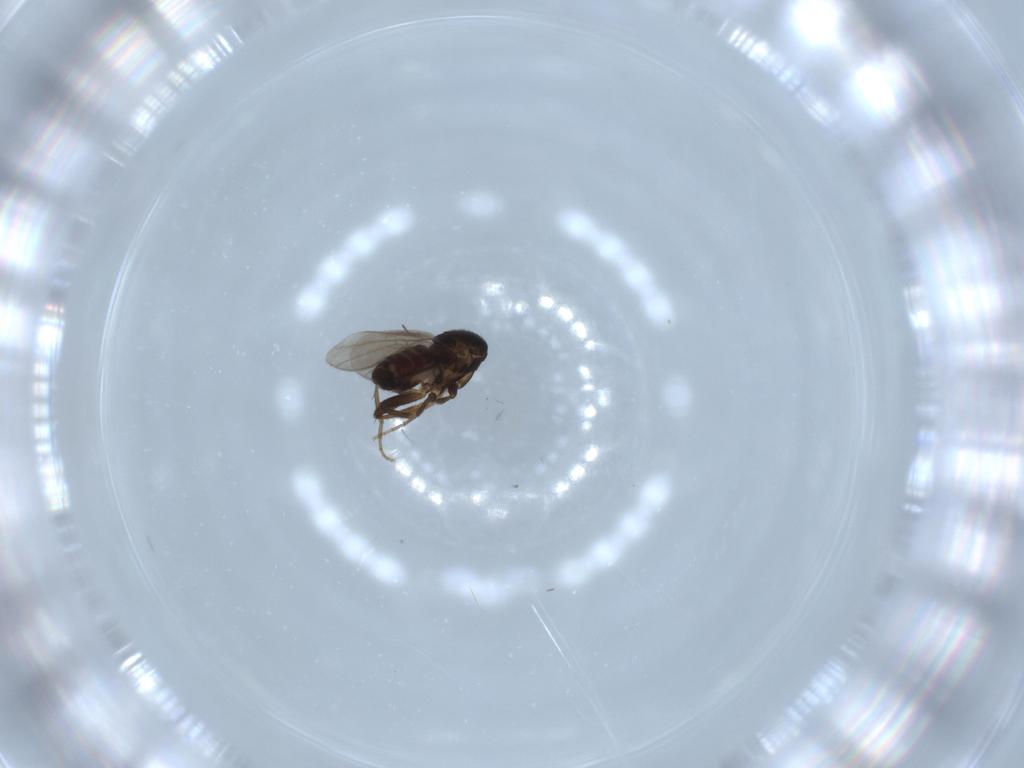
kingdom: Animalia
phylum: Arthropoda
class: Insecta
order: Diptera
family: Sphaeroceridae
